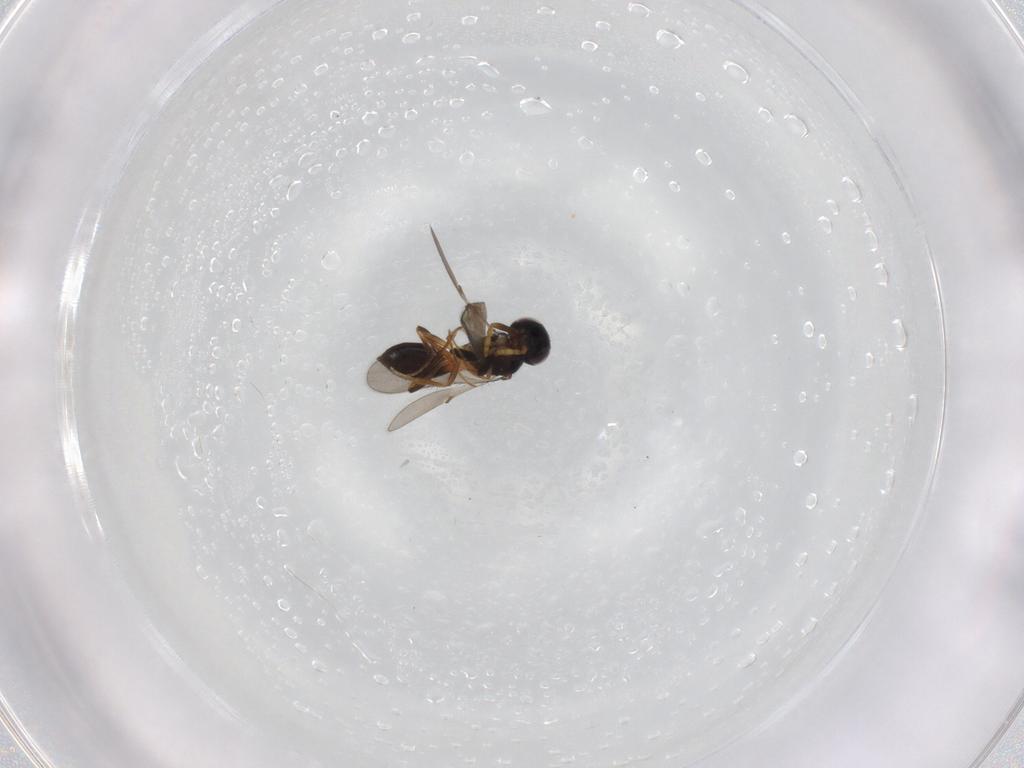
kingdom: Animalia
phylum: Arthropoda
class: Insecta
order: Hymenoptera
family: Scelionidae
